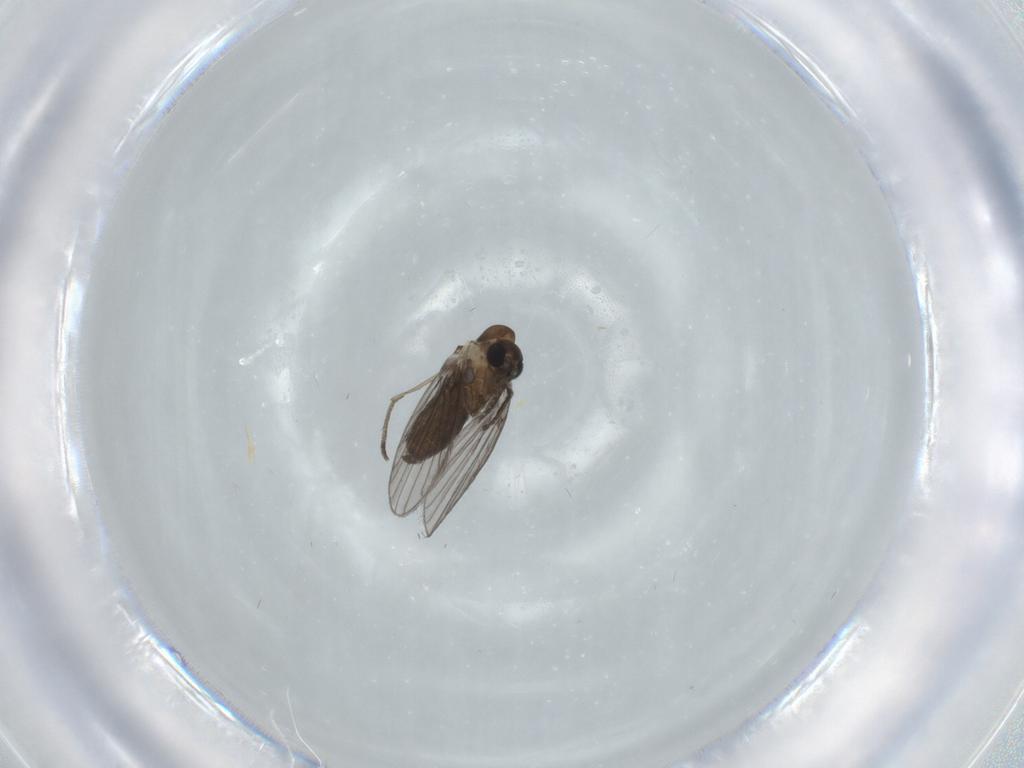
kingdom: Animalia
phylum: Arthropoda
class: Insecta
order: Diptera
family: Psychodidae
